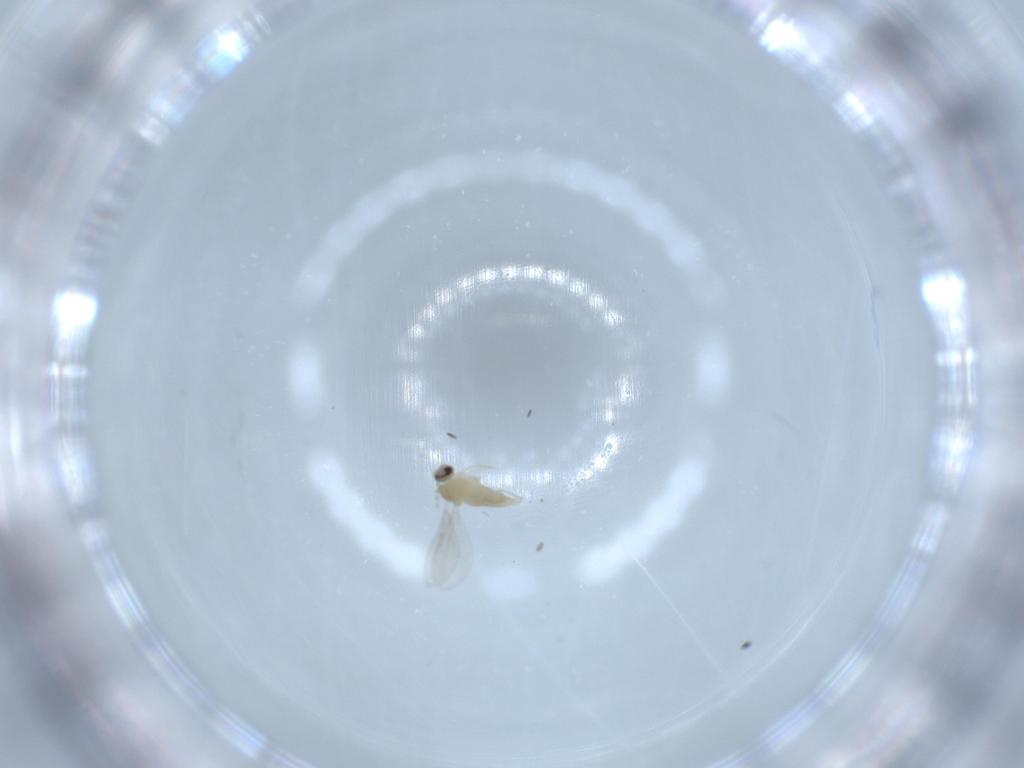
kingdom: Animalia
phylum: Arthropoda
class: Insecta
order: Diptera
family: Cecidomyiidae
